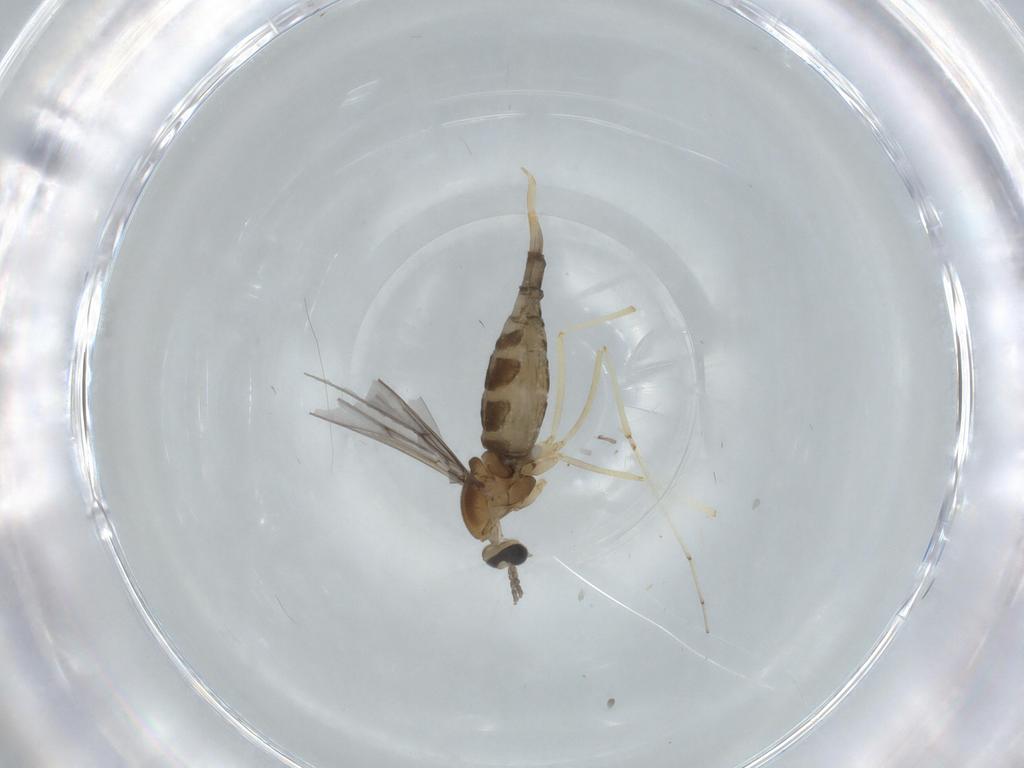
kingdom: Animalia
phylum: Arthropoda
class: Insecta
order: Diptera
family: Cecidomyiidae
